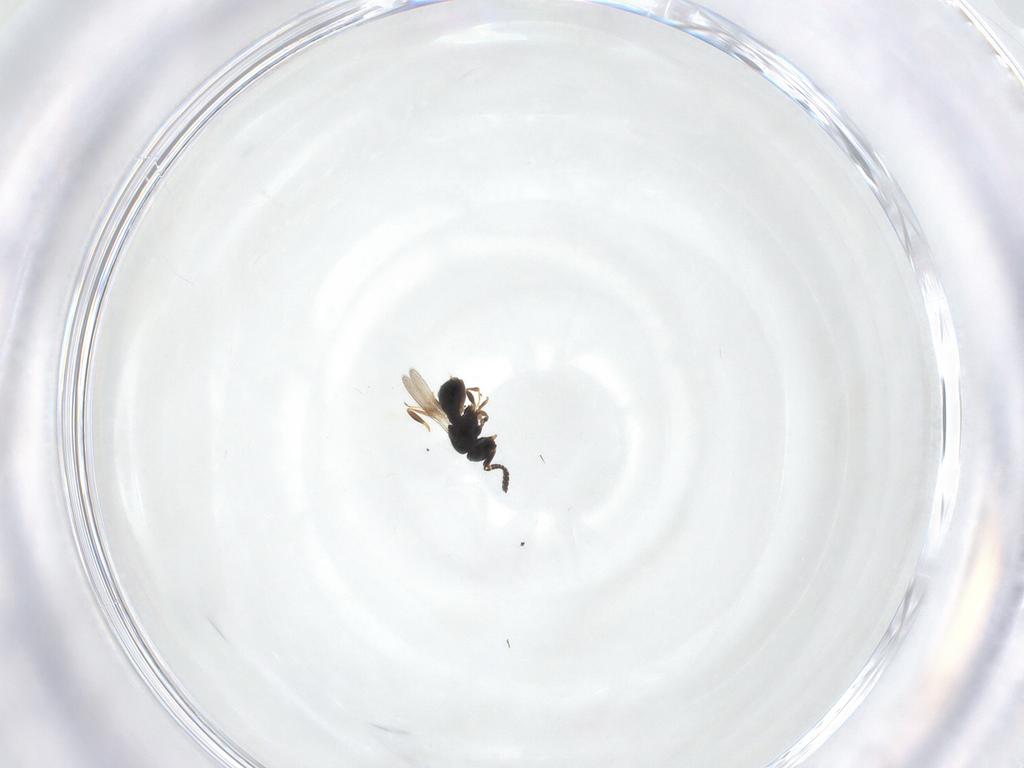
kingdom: Animalia
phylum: Arthropoda
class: Insecta
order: Hymenoptera
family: Scelionidae
